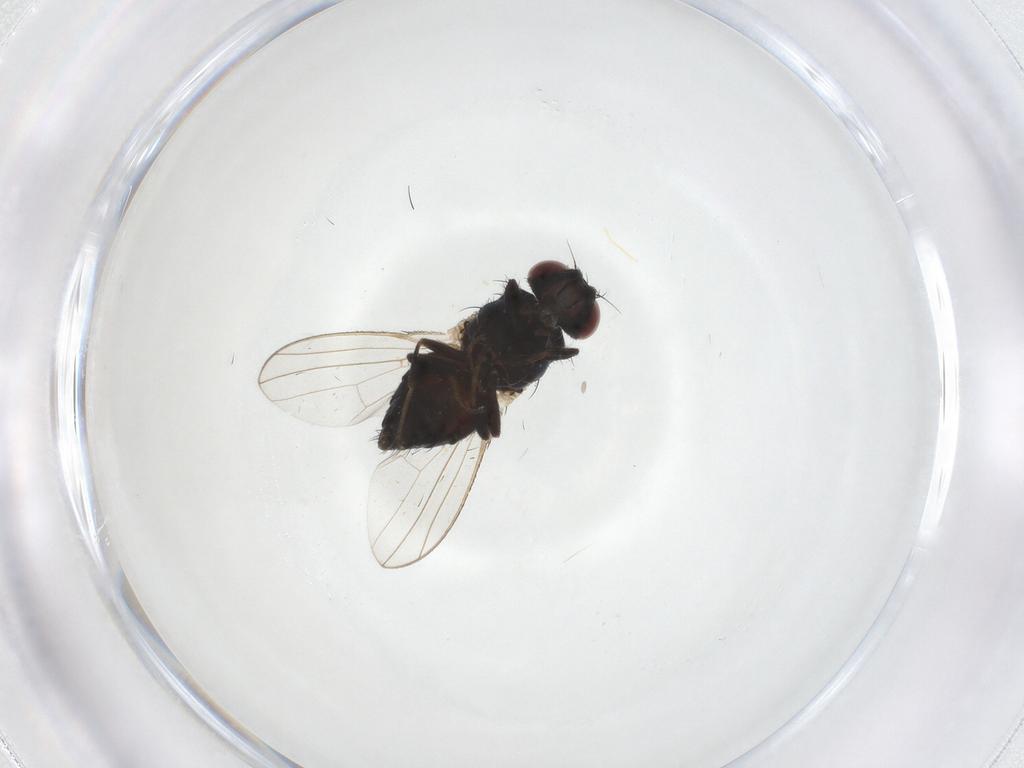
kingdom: Animalia
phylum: Arthropoda
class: Insecta
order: Diptera
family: Carnidae
